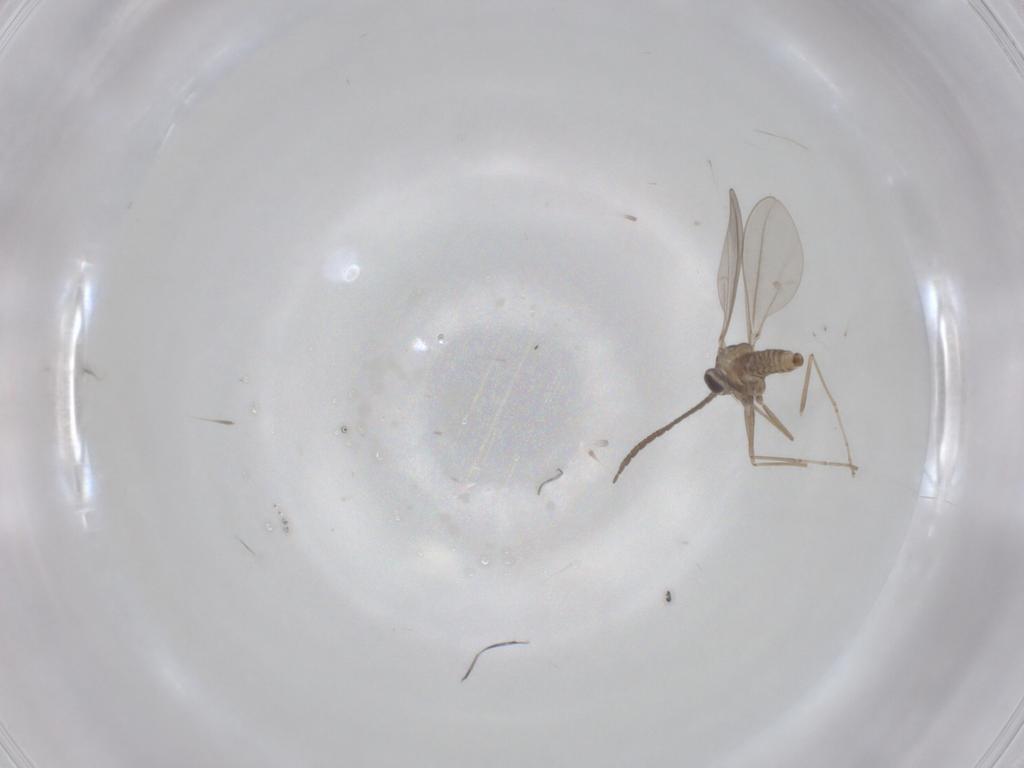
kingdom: Animalia
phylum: Arthropoda
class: Insecta
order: Diptera
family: Cecidomyiidae
